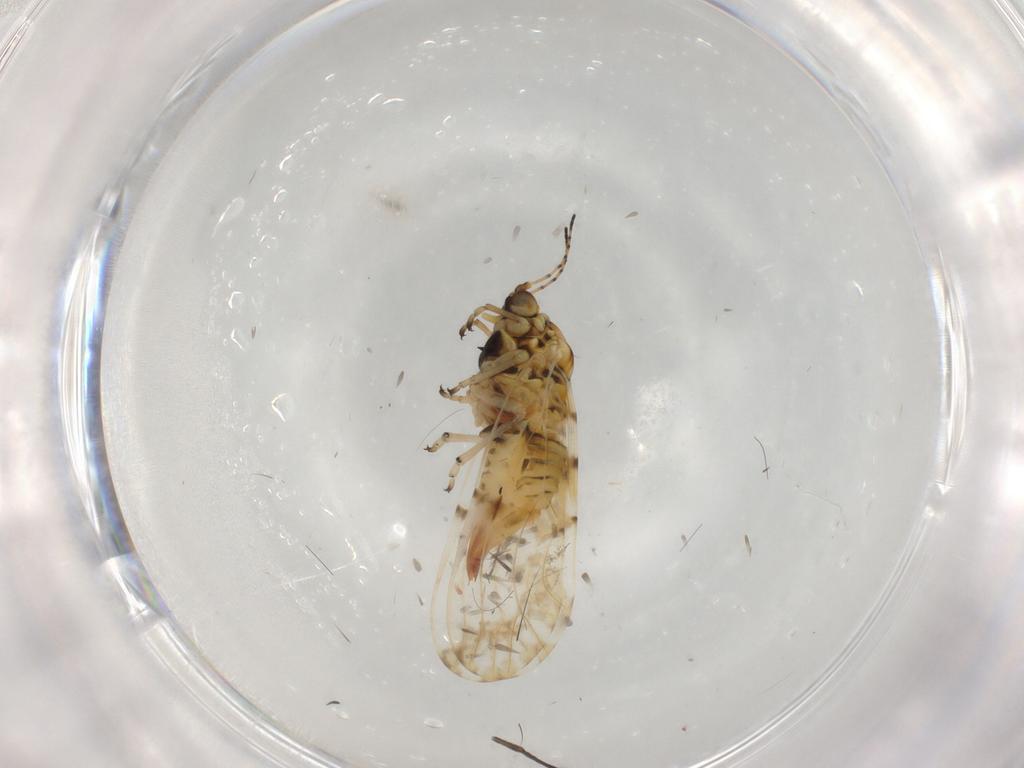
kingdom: Animalia
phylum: Arthropoda
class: Insecta
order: Hemiptera
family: Psylloidea_incertae_sedis
